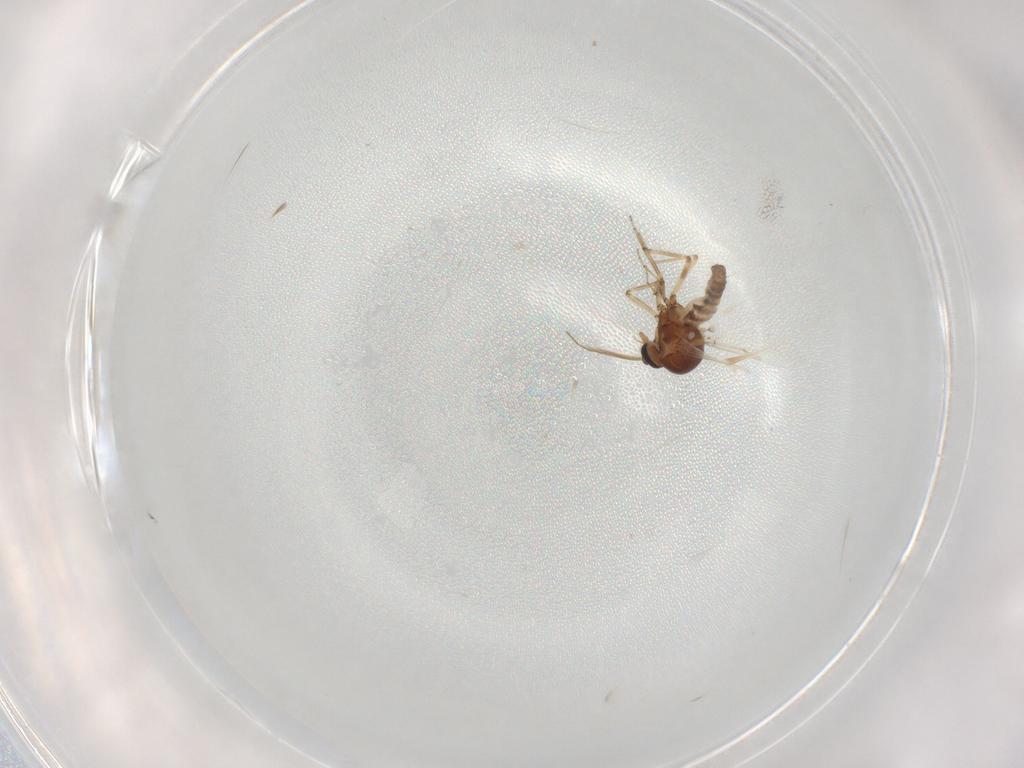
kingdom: Animalia
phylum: Arthropoda
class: Insecta
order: Diptera
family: Ceratopogonidae
